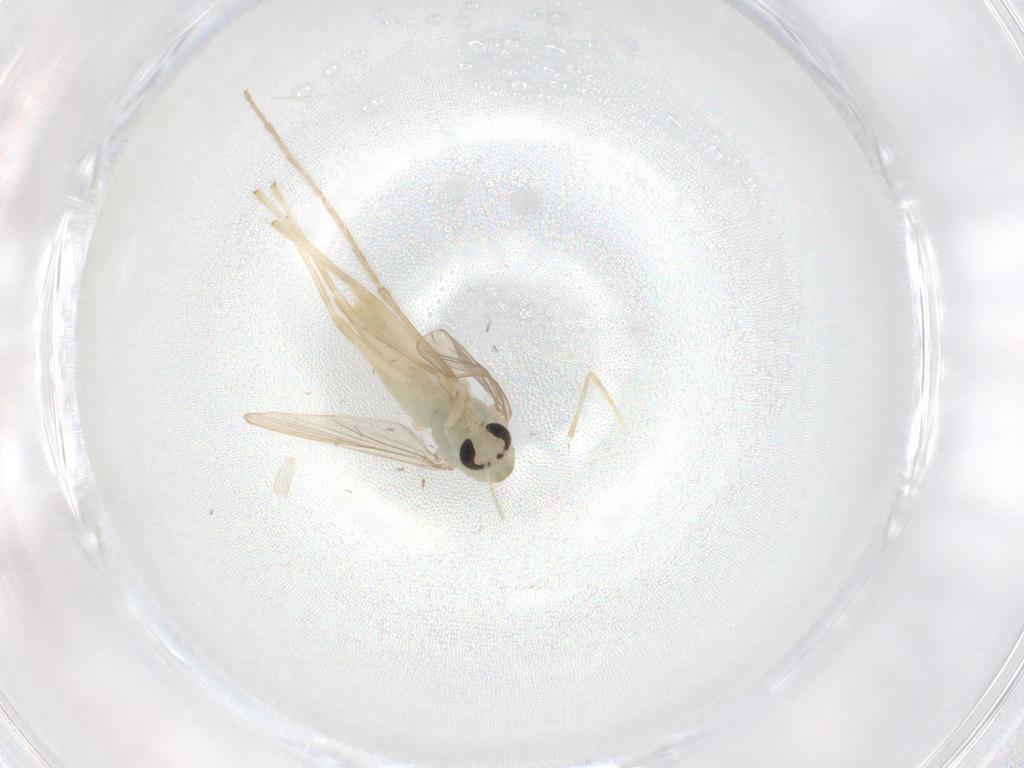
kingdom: Animalia
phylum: Arthropoda
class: Insecta
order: Diptera
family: Chironomidae
